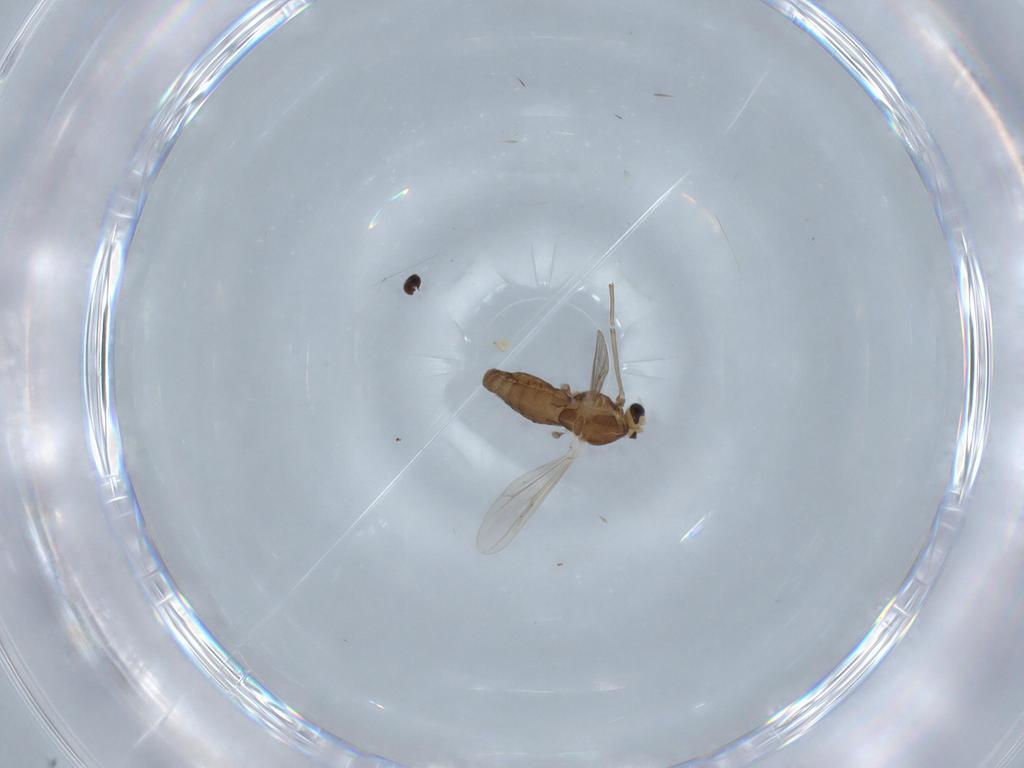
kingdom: Animalia
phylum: Arthropoda
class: Insecta
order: Diptera
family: Chironomidae
